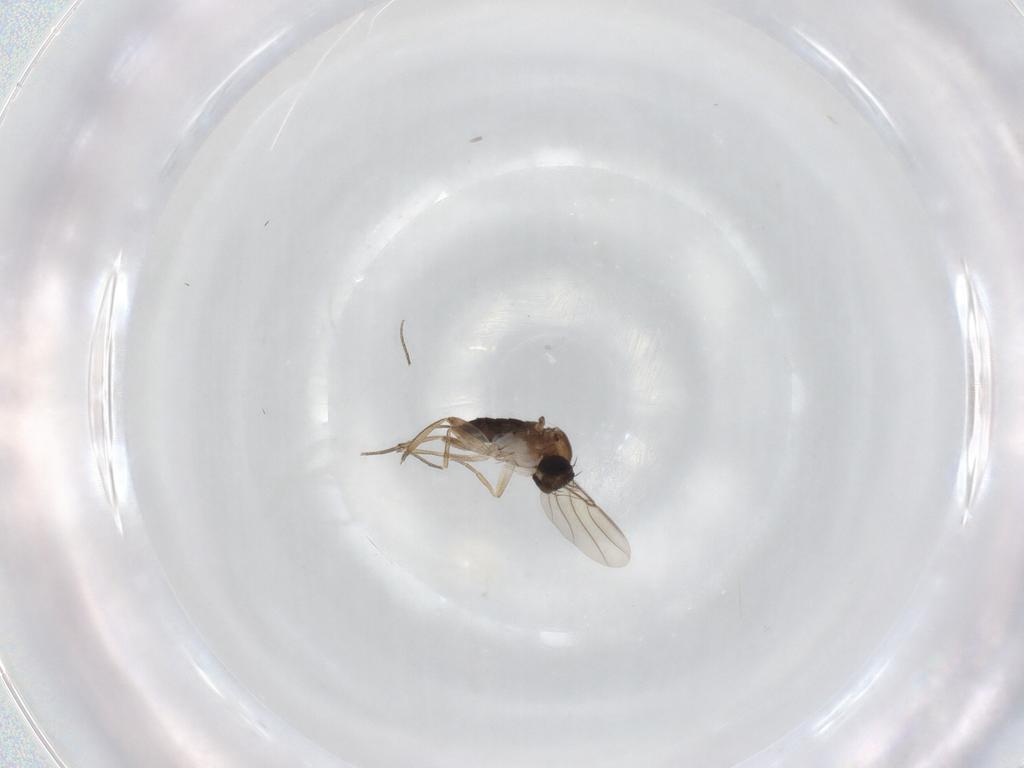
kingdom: Animalia
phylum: Arthropoda
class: Insecta
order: Diptera
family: Phoridae
